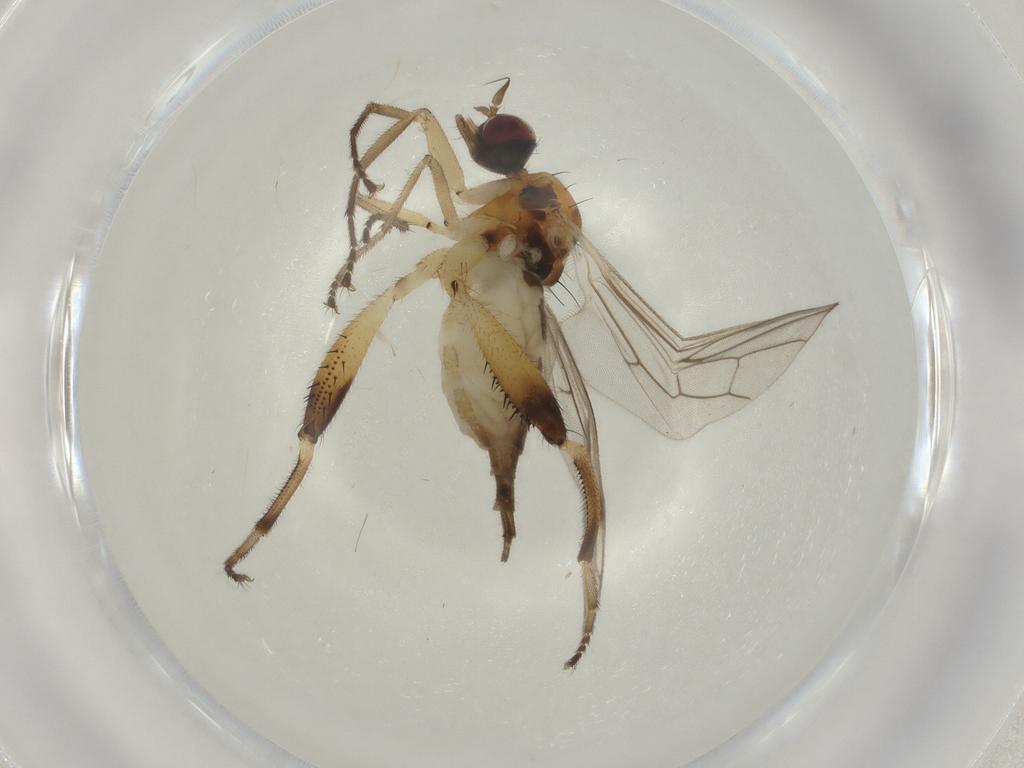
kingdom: Animalia
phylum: Arthropoda
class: Insecta
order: Diptera
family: Hybotidae
